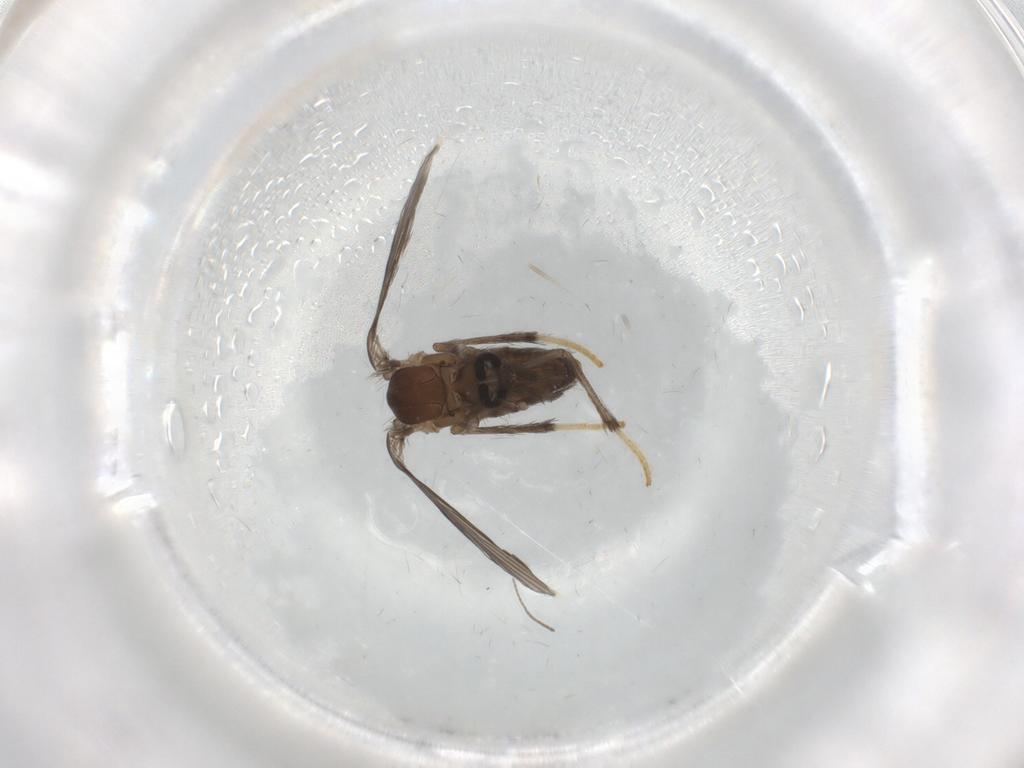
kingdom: Animalia
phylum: Arthropoda
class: Insecta
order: Diptera
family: Psychodidae
